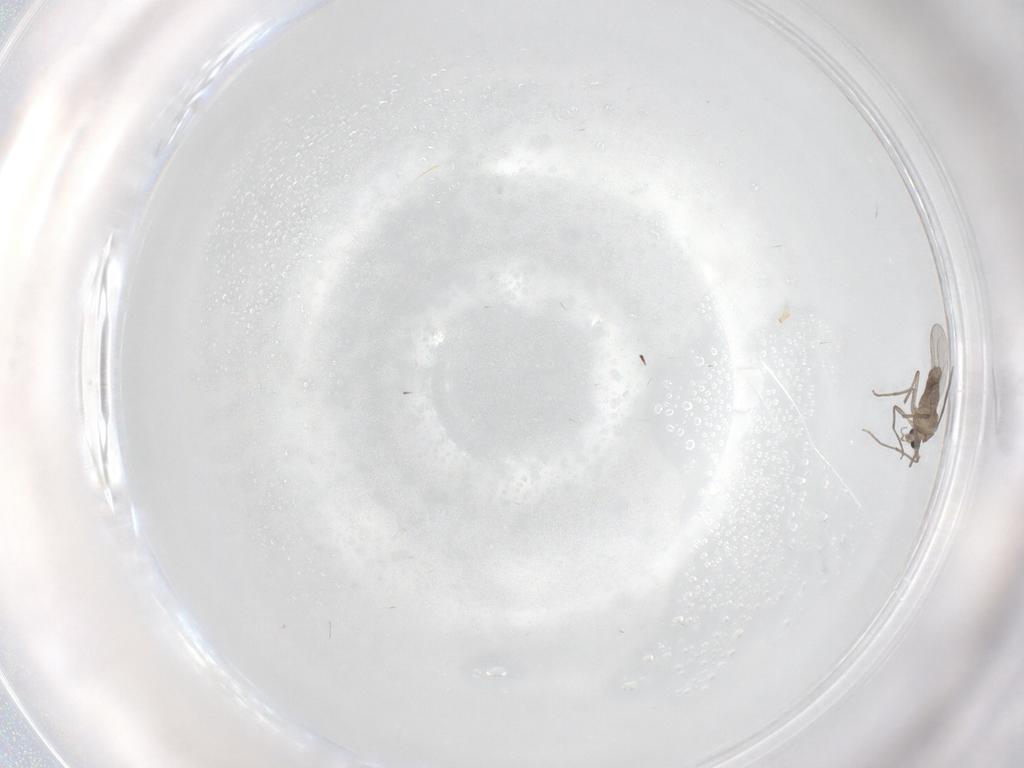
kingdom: Animalia
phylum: Arthropoda
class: Insecta
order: Diptera
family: Chironomidae
